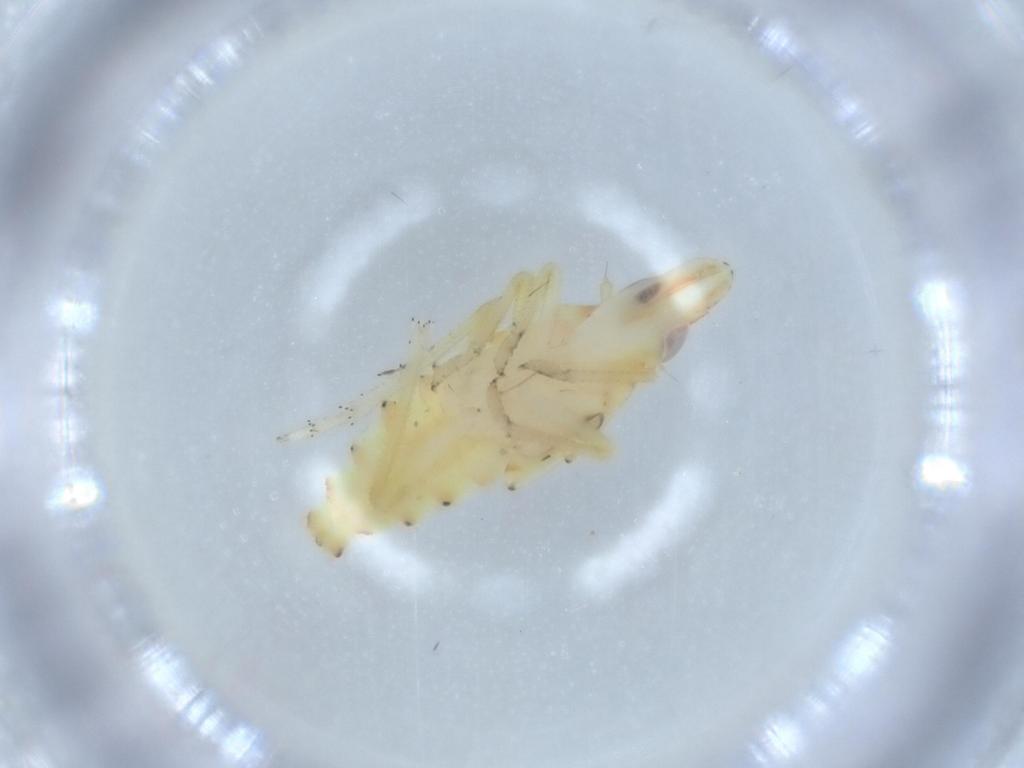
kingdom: Animalia
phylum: Arthropoda
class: Insecta
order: Hemiptera
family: Tropiduchidae
